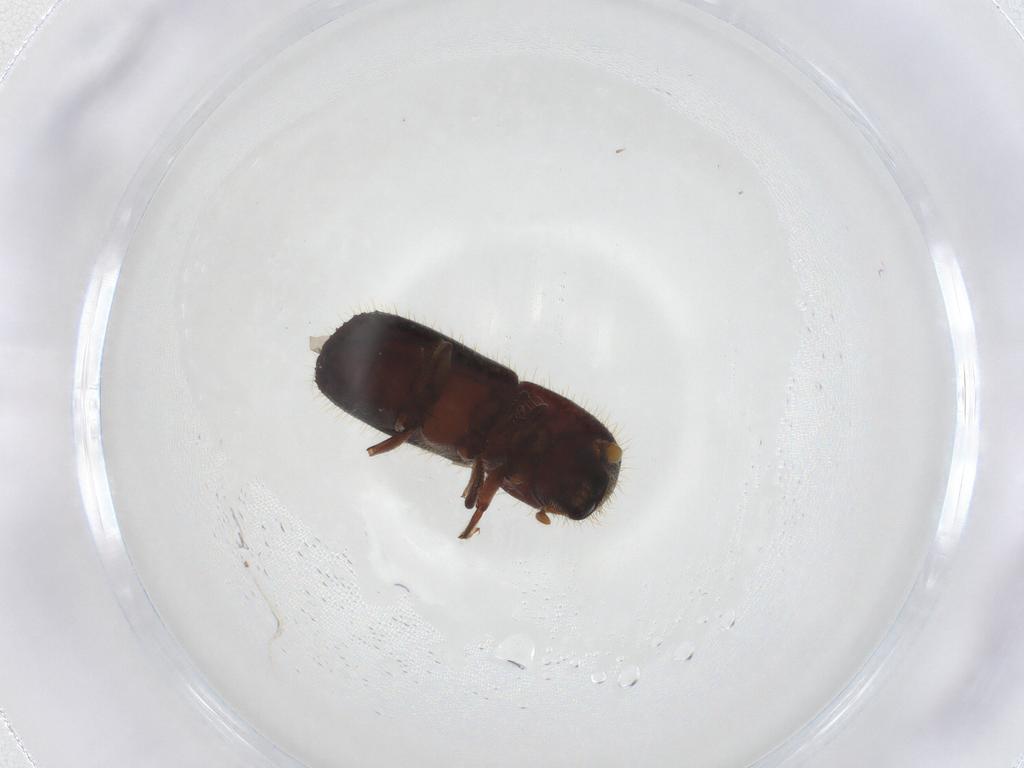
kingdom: Animalia
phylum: Arthropoda
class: Insecta
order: Coleoptera
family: Curculionidae
